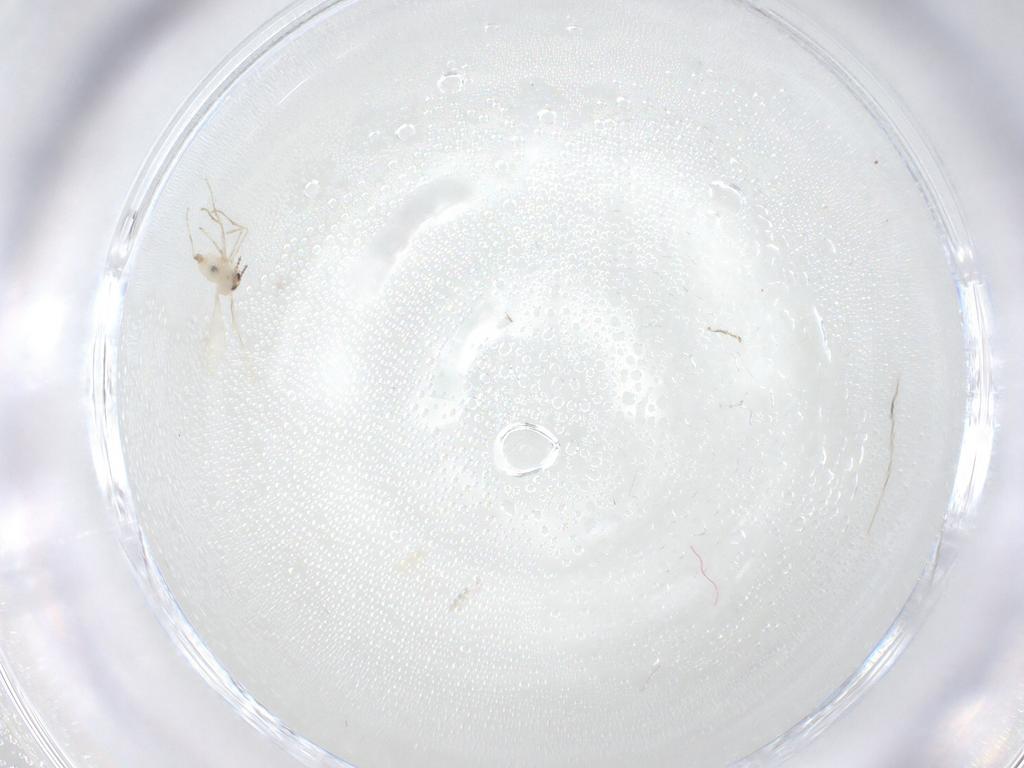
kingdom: Animalia
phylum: Arthropoda
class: Insecta
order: Diptera
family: Cecidomyiidae
